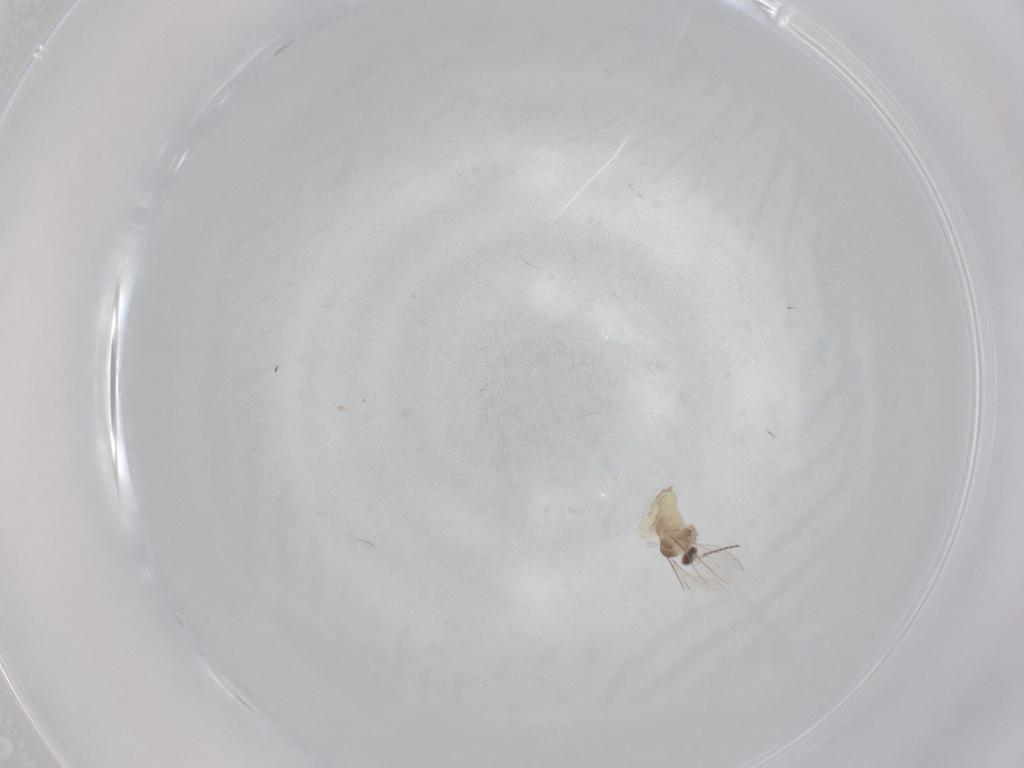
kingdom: Animalia
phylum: Arthropoda
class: Insecta
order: Diptera
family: Cecidomyiidae
